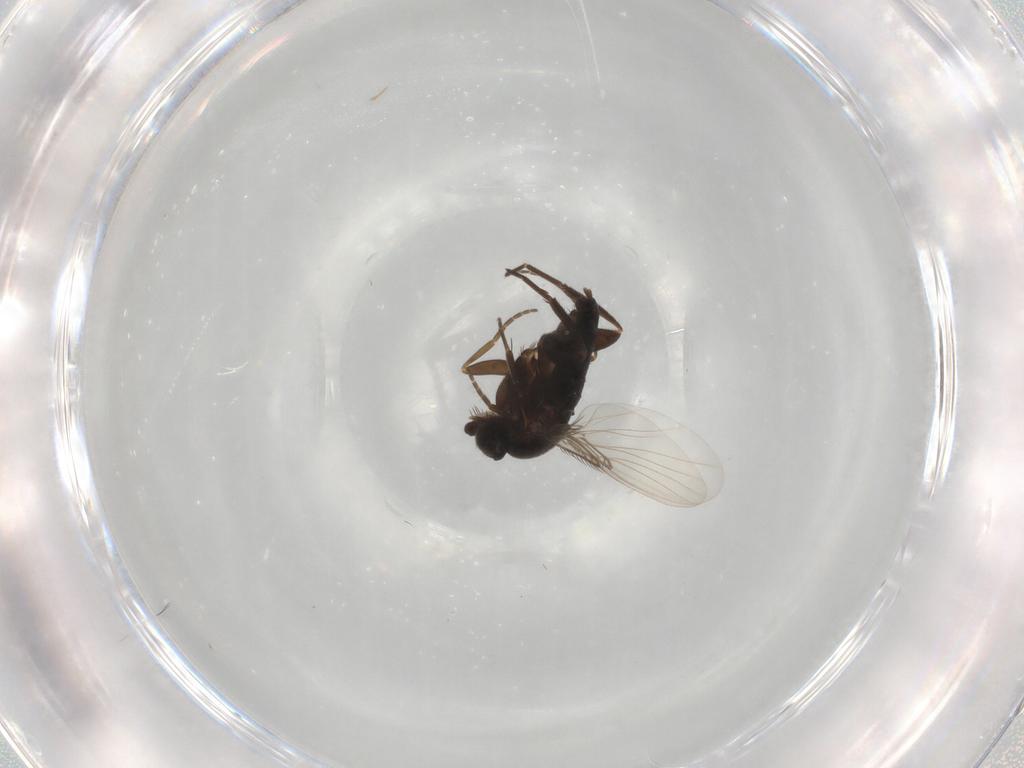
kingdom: Animalia
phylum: Arthropoda
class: Insecta
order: Diptera
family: Phoridae
